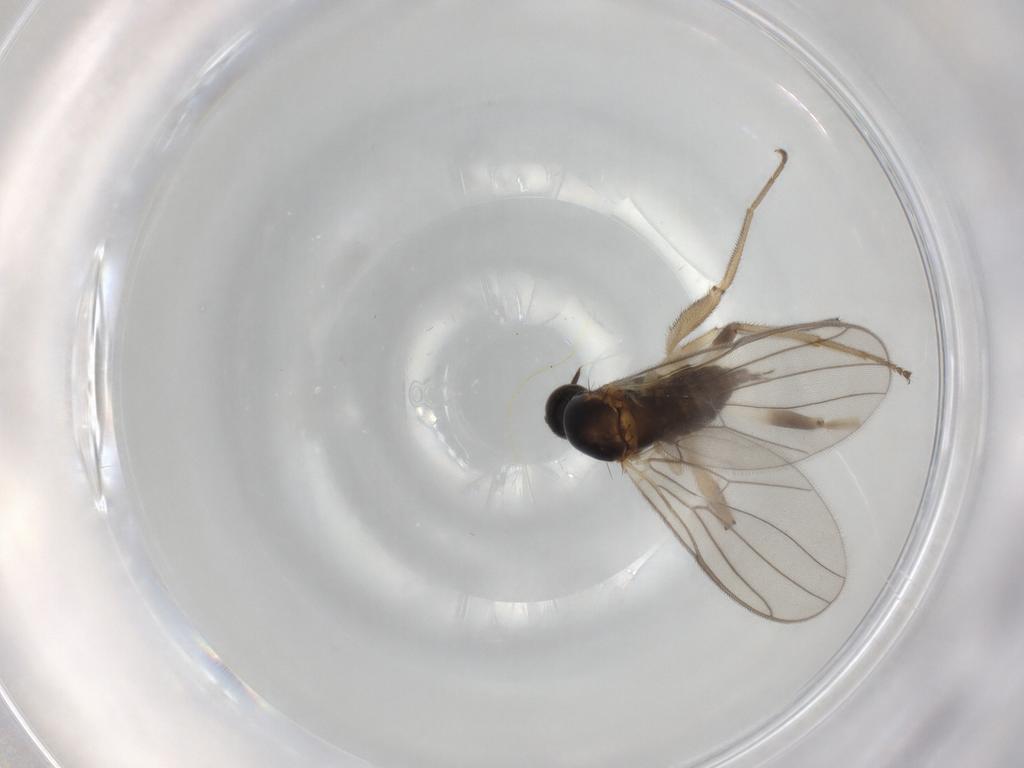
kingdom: Animalia
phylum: Arthropoda
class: Insecta
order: Diptera
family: Hybotidae
